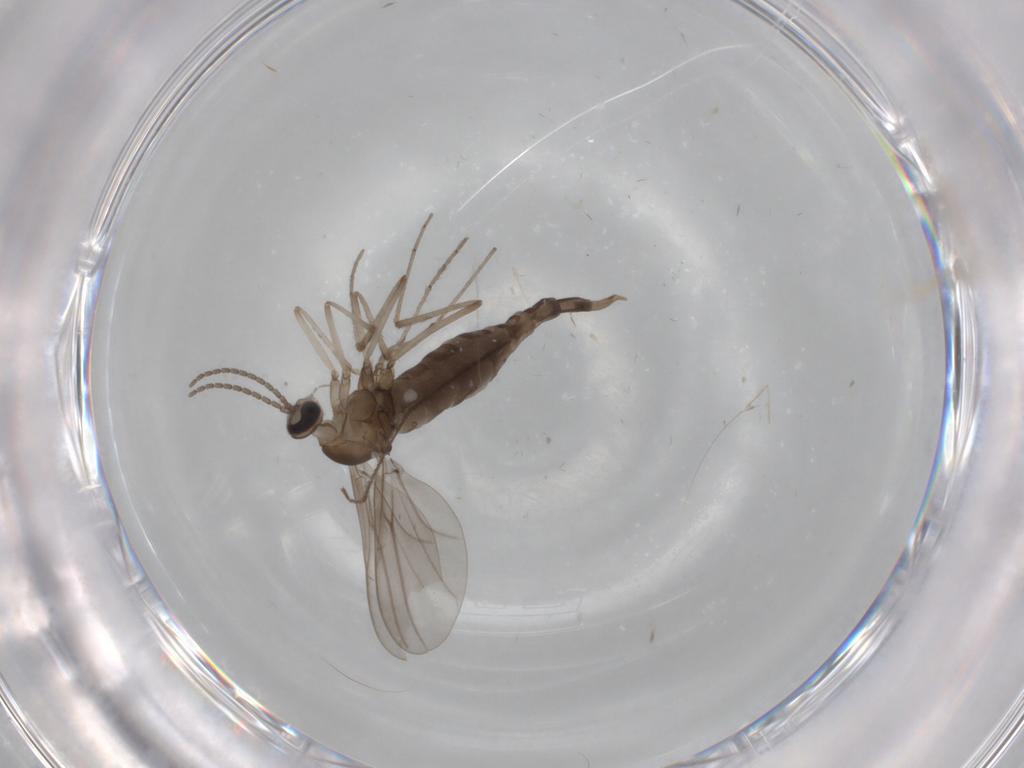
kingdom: Animalia
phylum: Arthropoda
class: Insecta
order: Diptera
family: Cecidomyiidae
